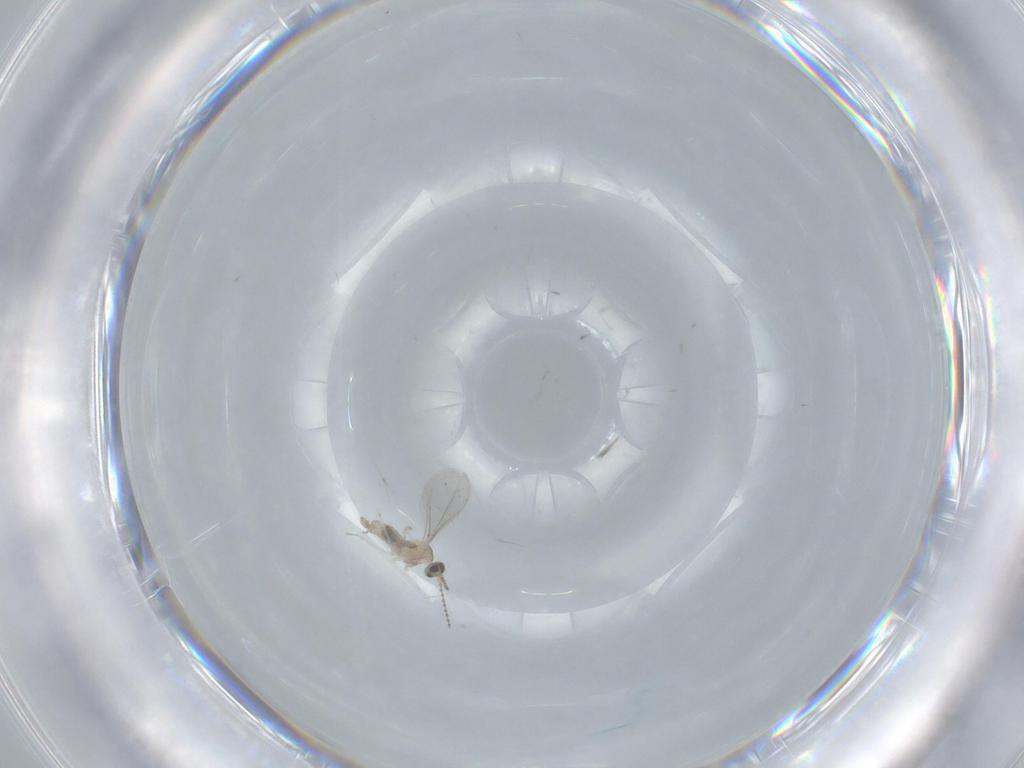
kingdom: Animalia
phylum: Arthropoda
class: Insecta
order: Diptera
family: Cecidomyiidae
